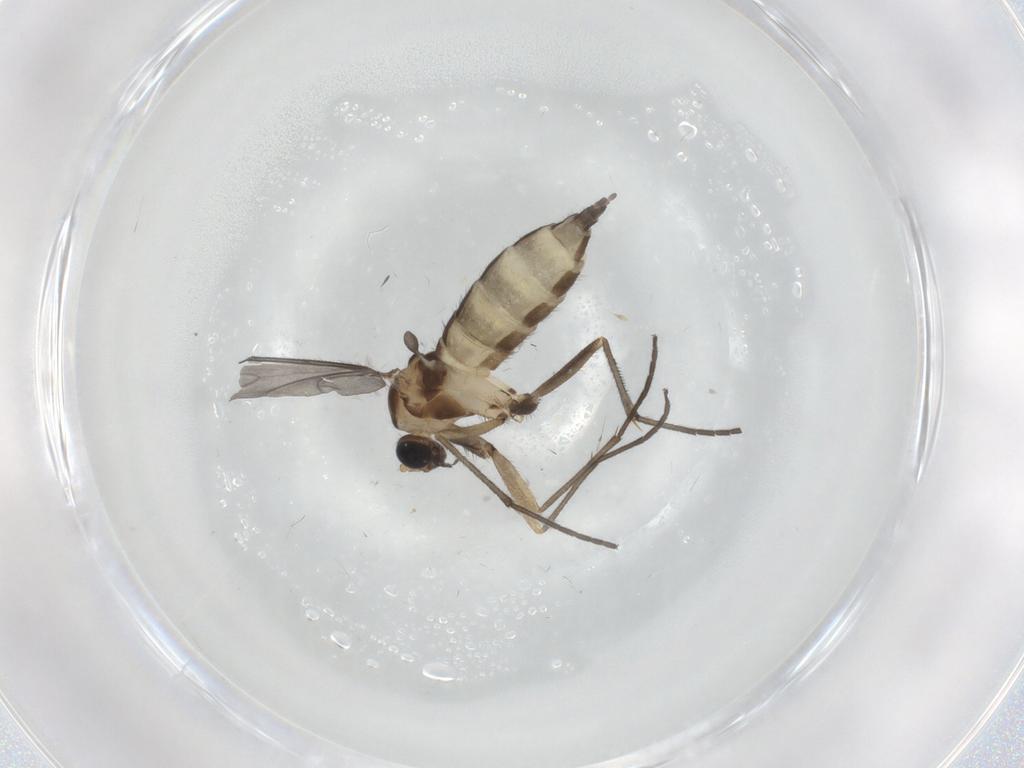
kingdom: Animalia
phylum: Arthropoda
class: Insecta
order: Diptera
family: Sciaridae
